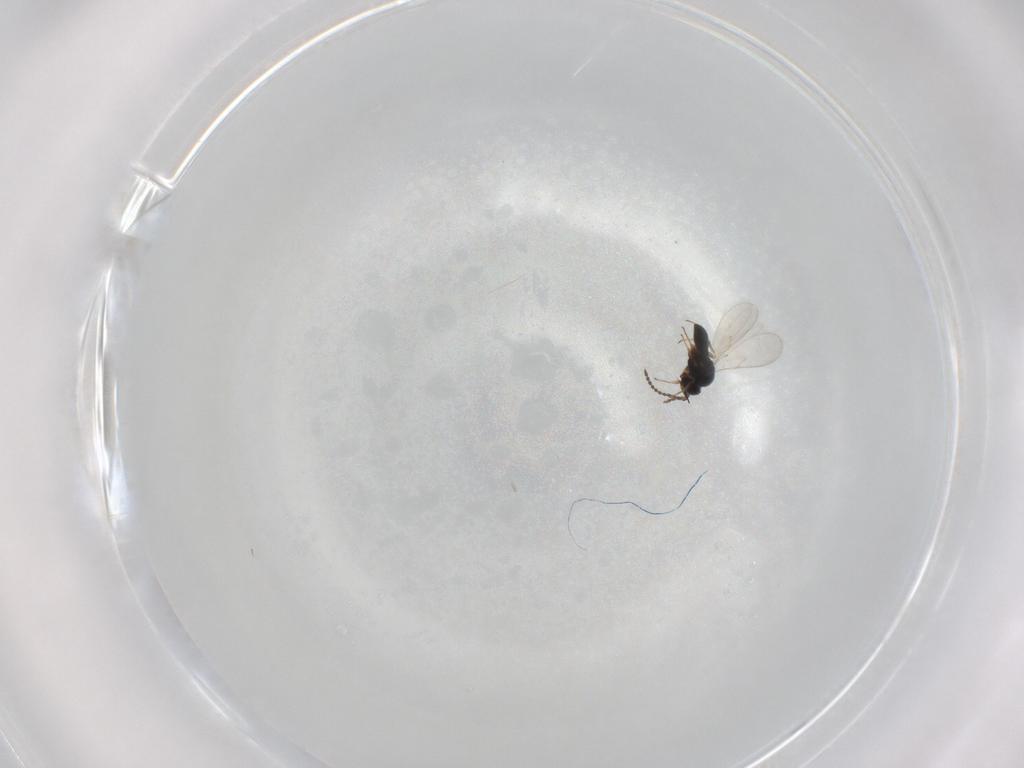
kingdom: Animalia
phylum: Arthropoda
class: Insecta
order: Hymenoptera
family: Scelionidae
